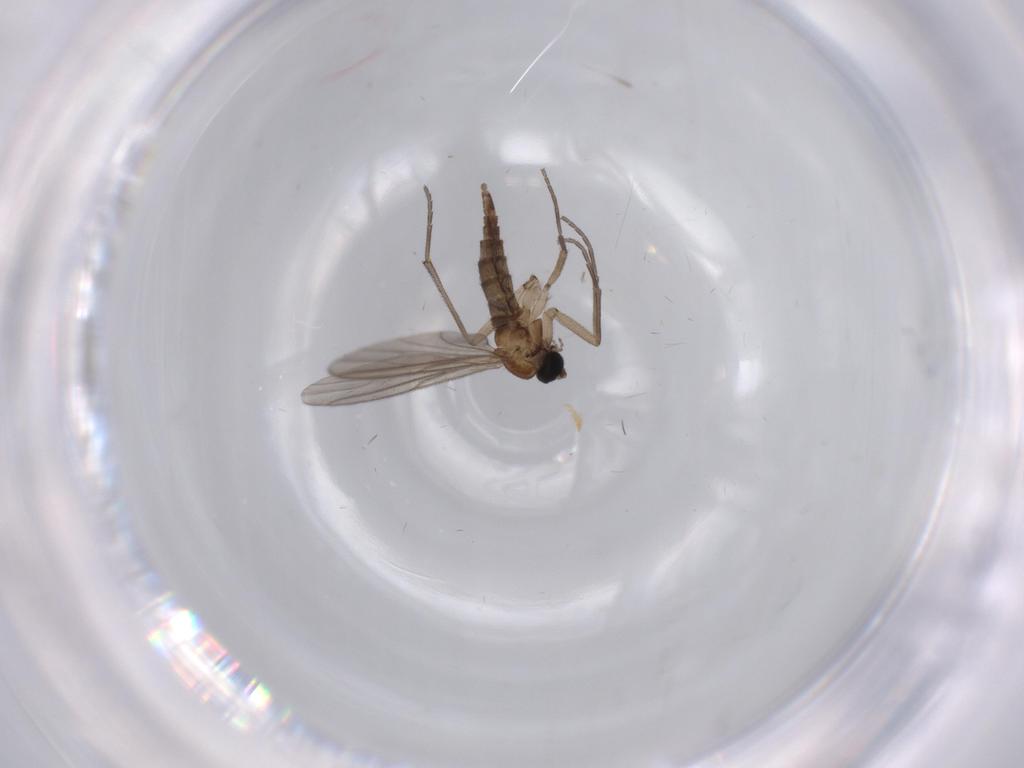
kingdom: Animalia
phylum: Arthropoda
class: Insecta
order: Diptera
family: Sciaridae
